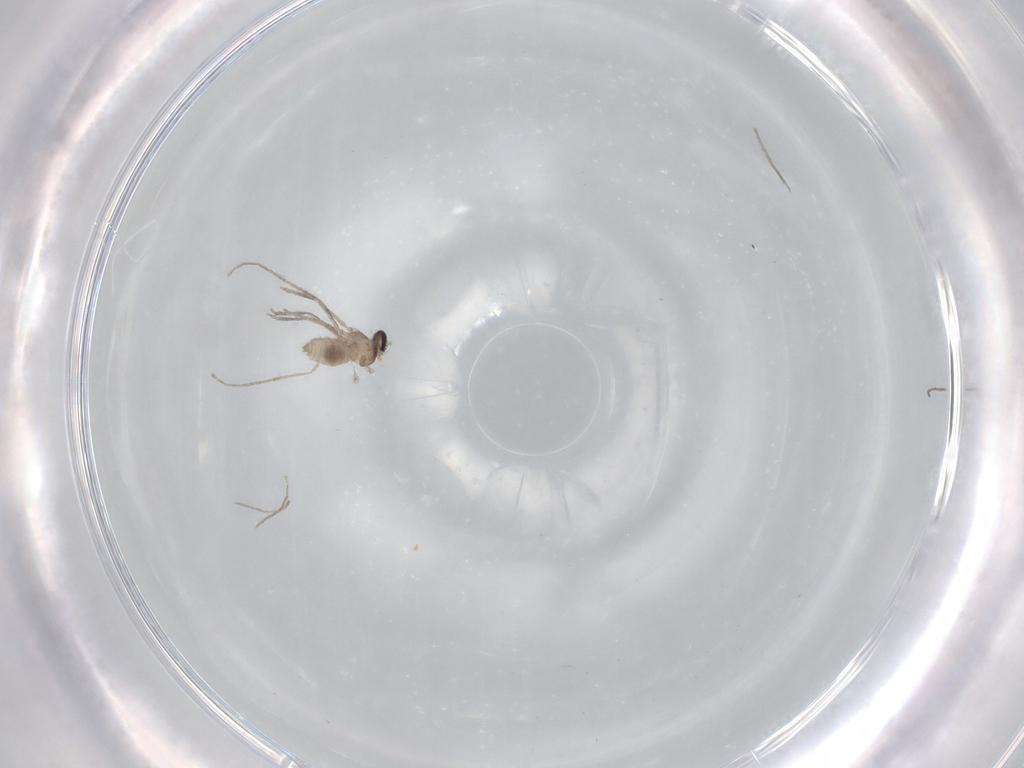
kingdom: Animalia
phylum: Arthropoda
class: Insecta
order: Diptera
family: Cecidomyiidae
